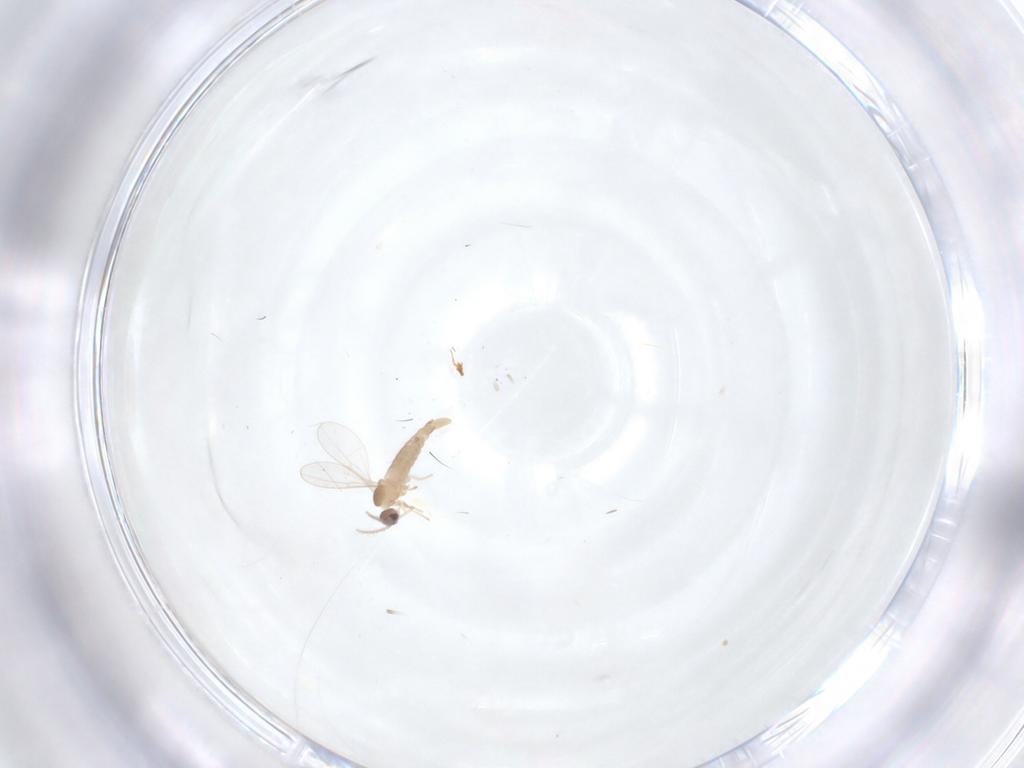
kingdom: Animalia
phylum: Arthropoda
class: Insecta
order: Diptera
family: Cecidomyiidae
